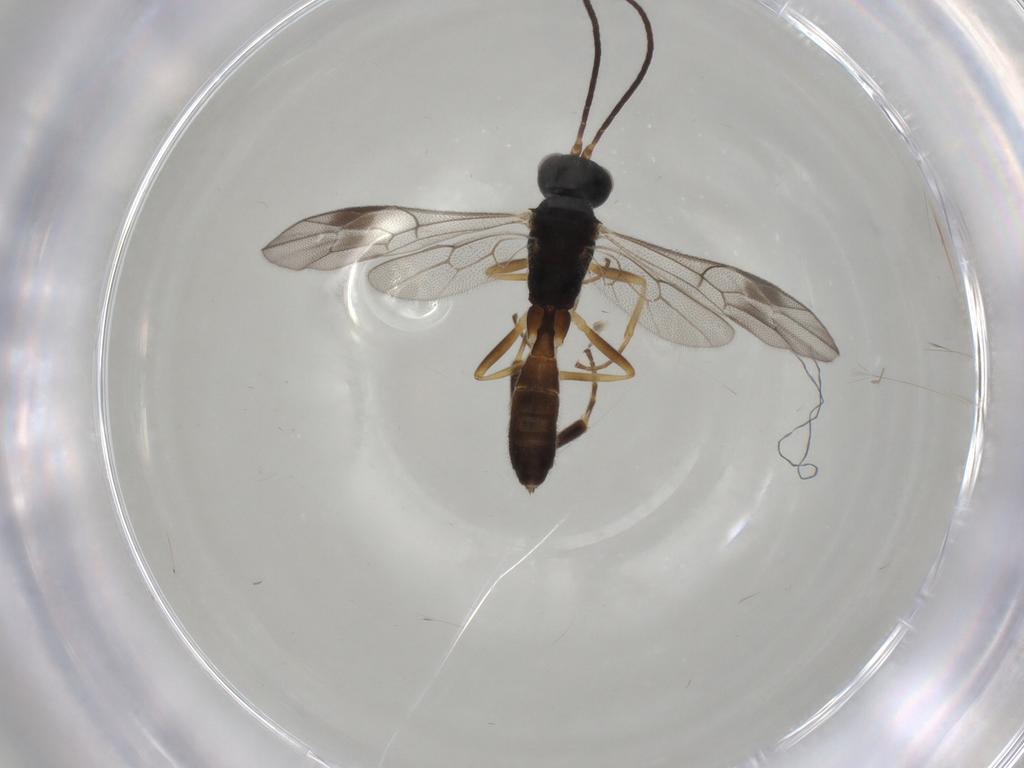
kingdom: Animalia
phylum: Arthropoda
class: Insecta
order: Hymenoptera
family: Ichneumonidae
